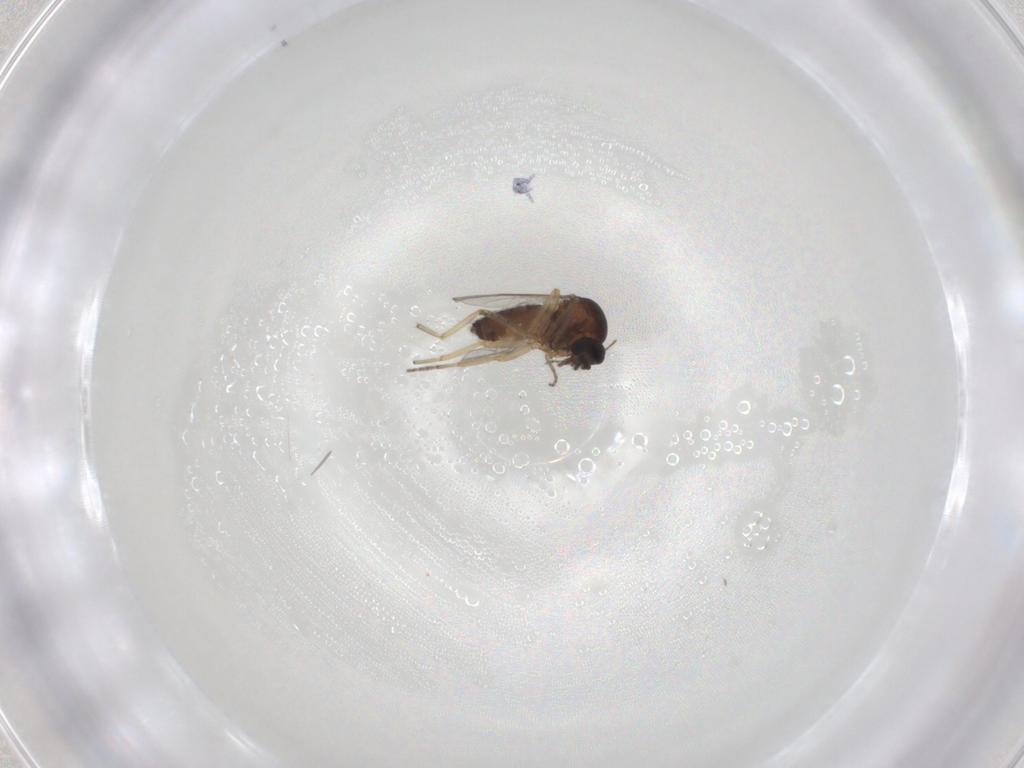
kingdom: Animalia
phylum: Arthropoda
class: Insecta
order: Diptera
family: Ceratopogonidae
